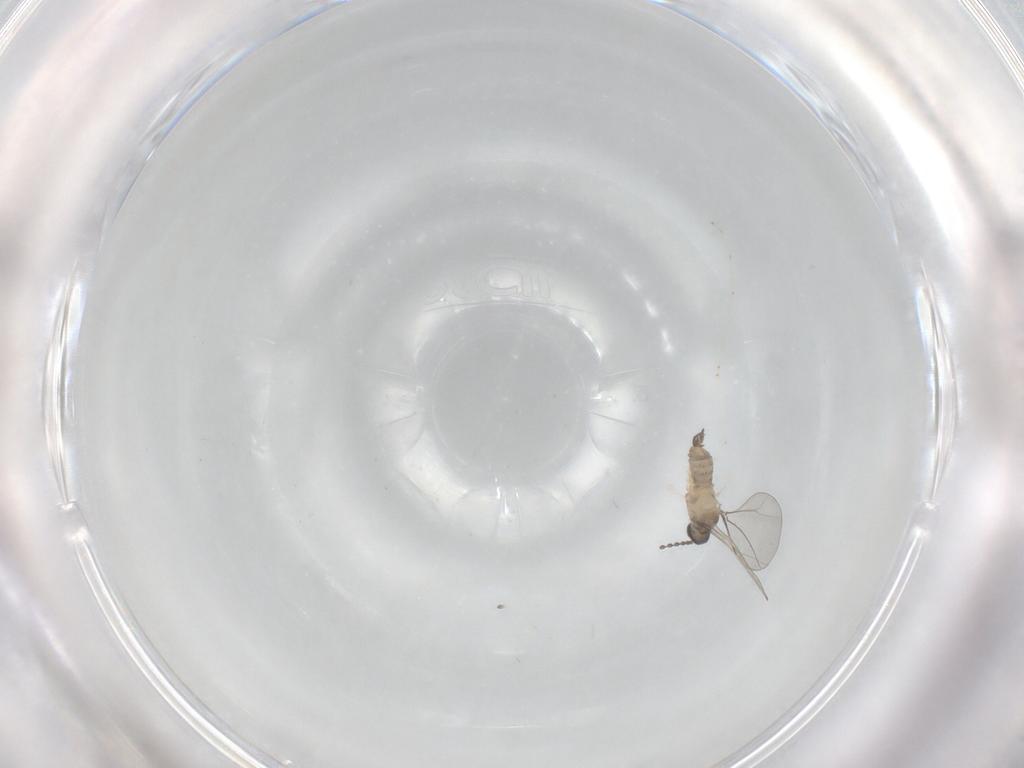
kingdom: Animalia
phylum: Arthropoda
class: Insecta
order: Diptera
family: Cecidomyiidae
